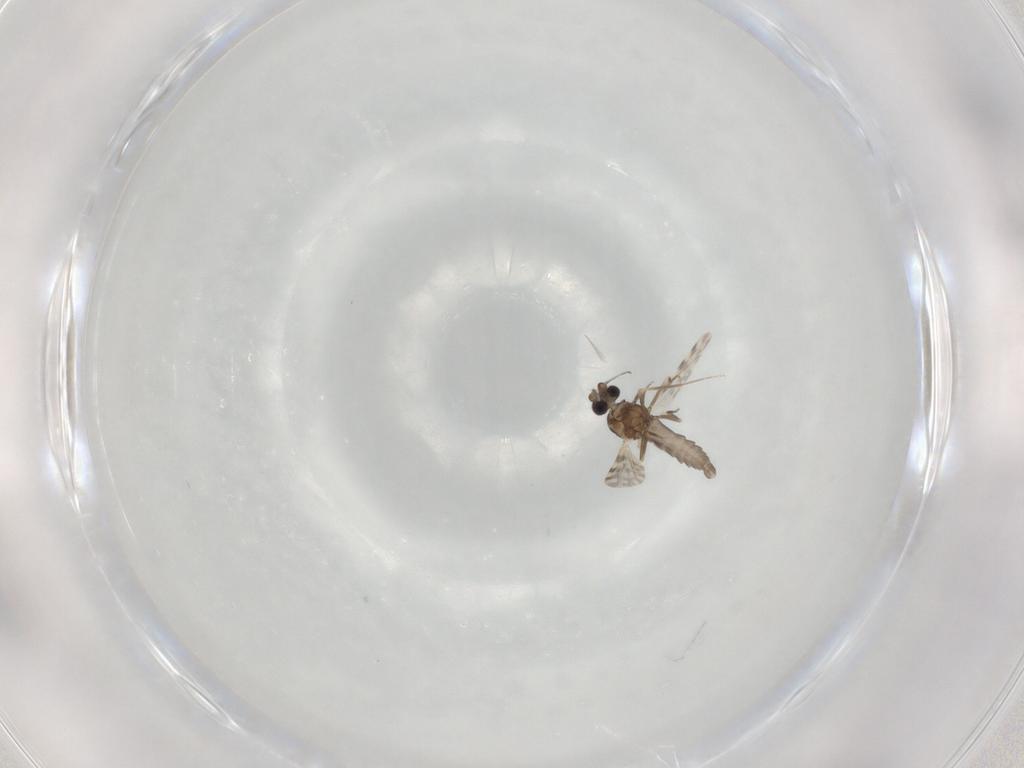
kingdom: Animalia
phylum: Arthropoda
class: Insecta
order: Diptera
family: Ceratopogonidae
